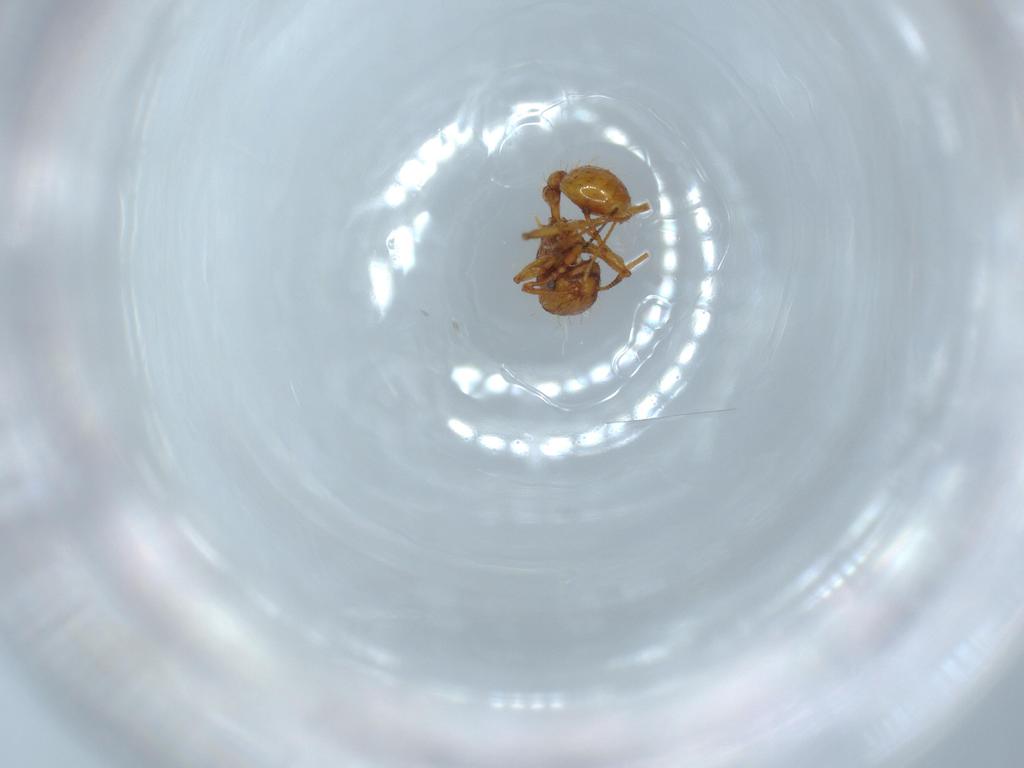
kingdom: Animalia
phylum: Arthropoda
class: Insecta
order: Hymenoptera
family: Formicidae
